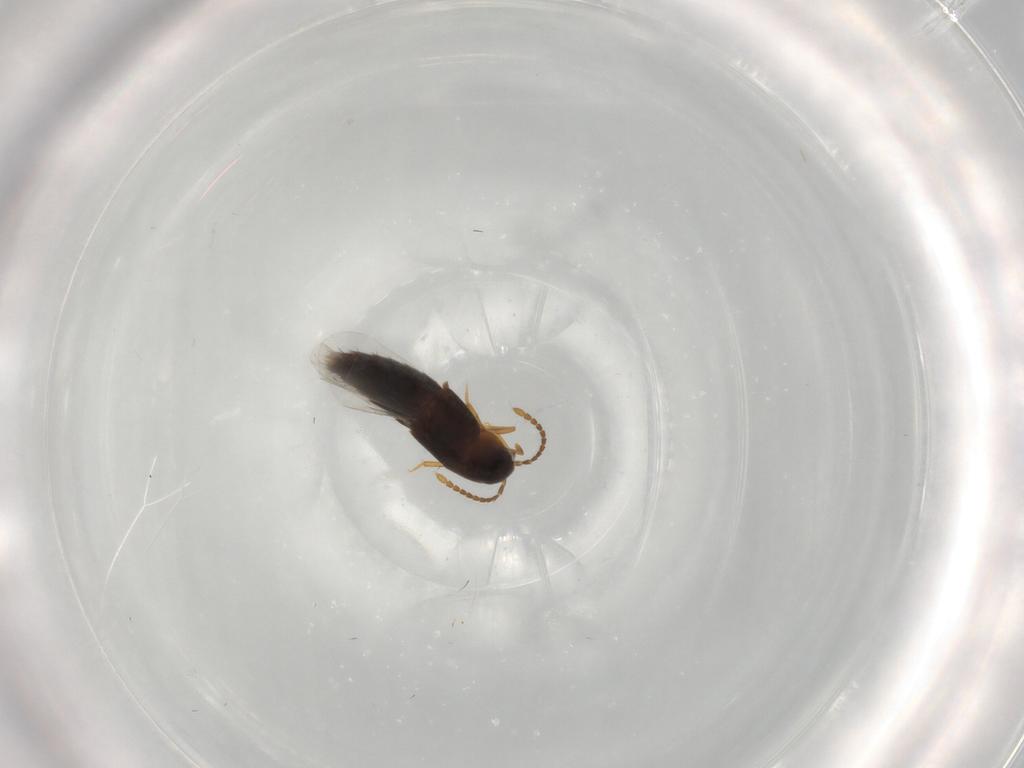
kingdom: Animalia
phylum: Arthropoda
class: Insecta
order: Coleoptera
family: Staphylinidae
